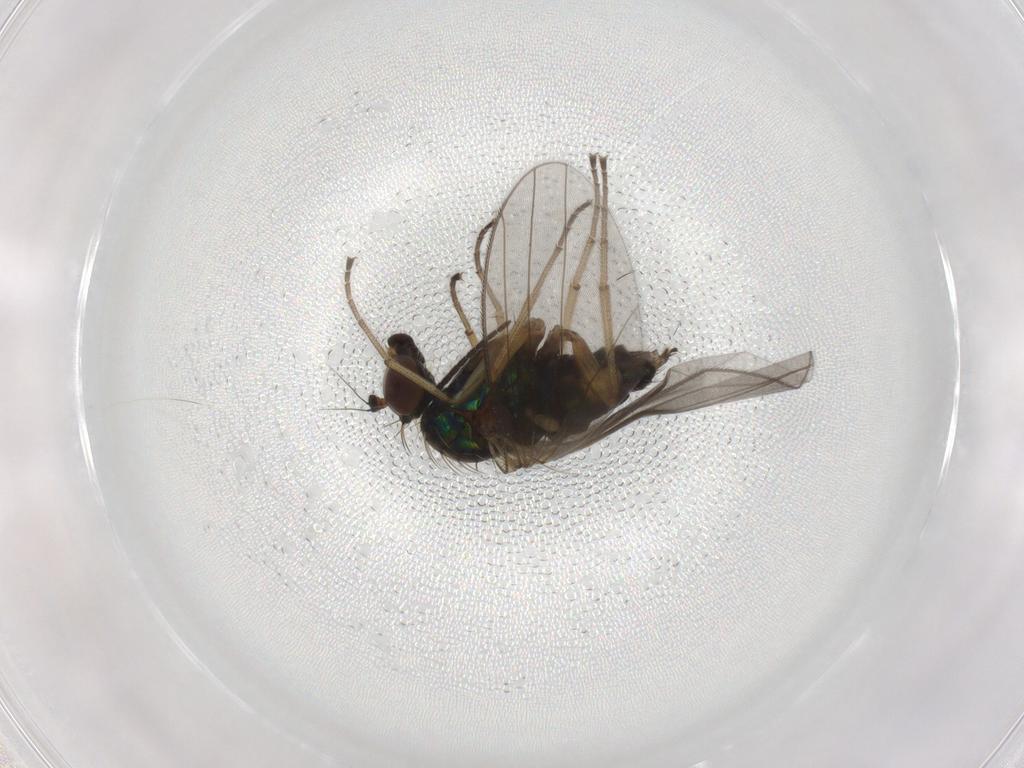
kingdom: Animalia
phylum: Arthropoda
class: Insecta
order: Diptera
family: Dolichopodidae
